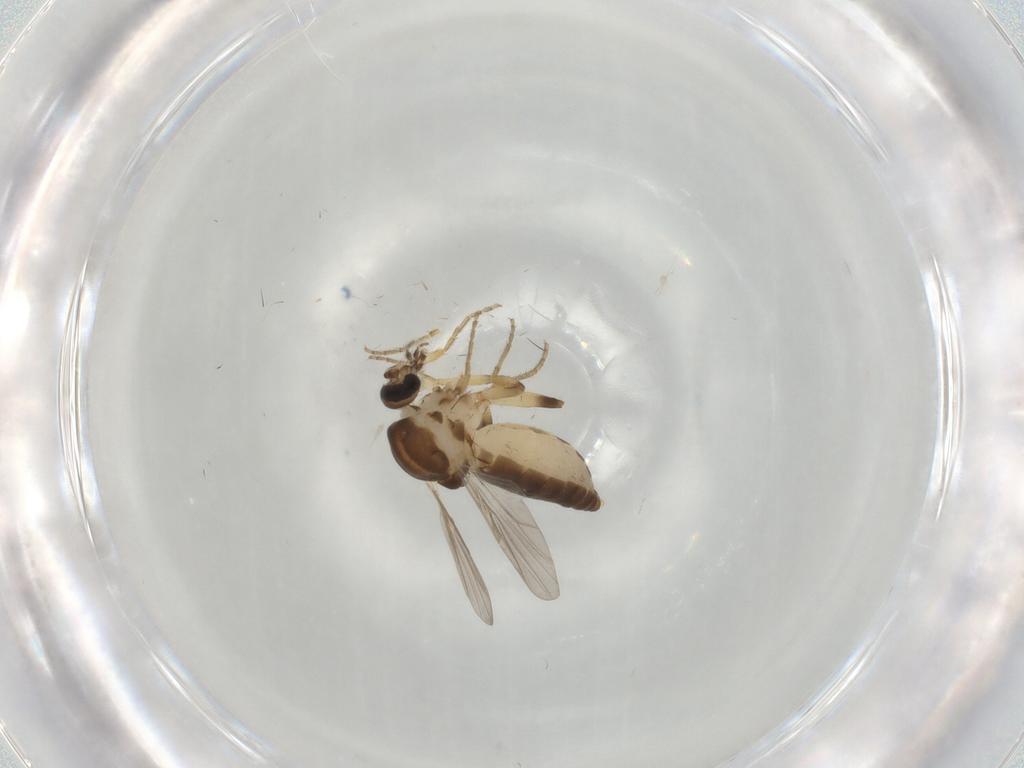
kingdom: Animalia
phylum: Arthropoda
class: Insecta
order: Diptera
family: Ceratopogonidae
